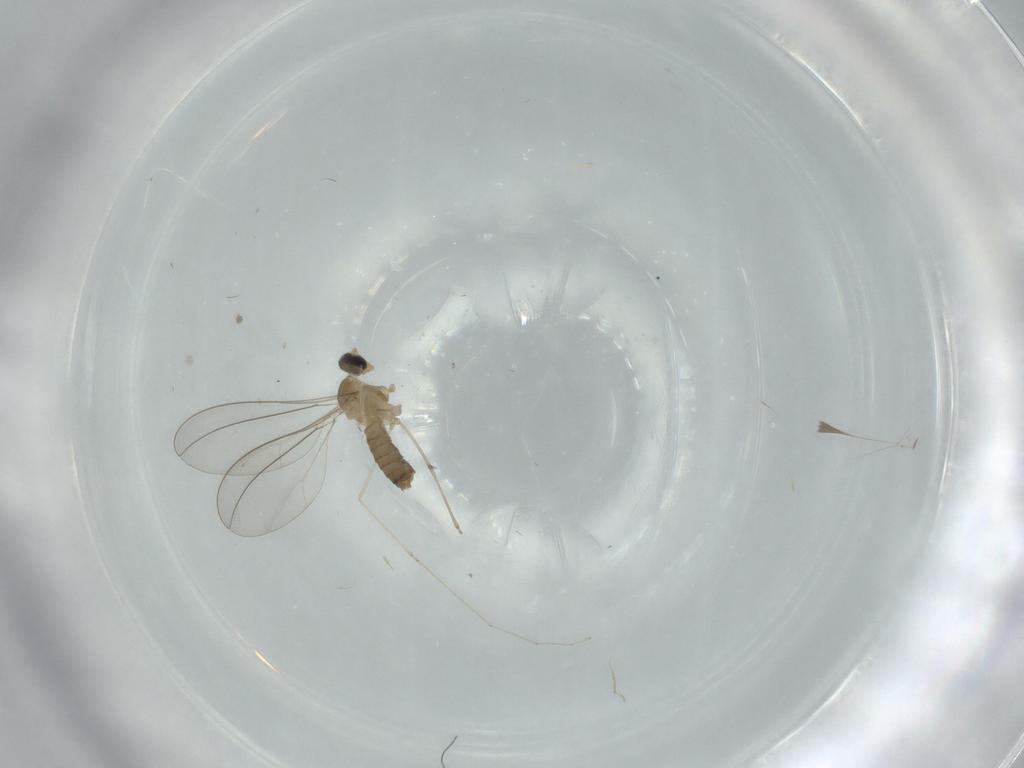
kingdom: Animalia
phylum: Arthropoda
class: Insecta
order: Diptera
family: Cecidomyiidae
